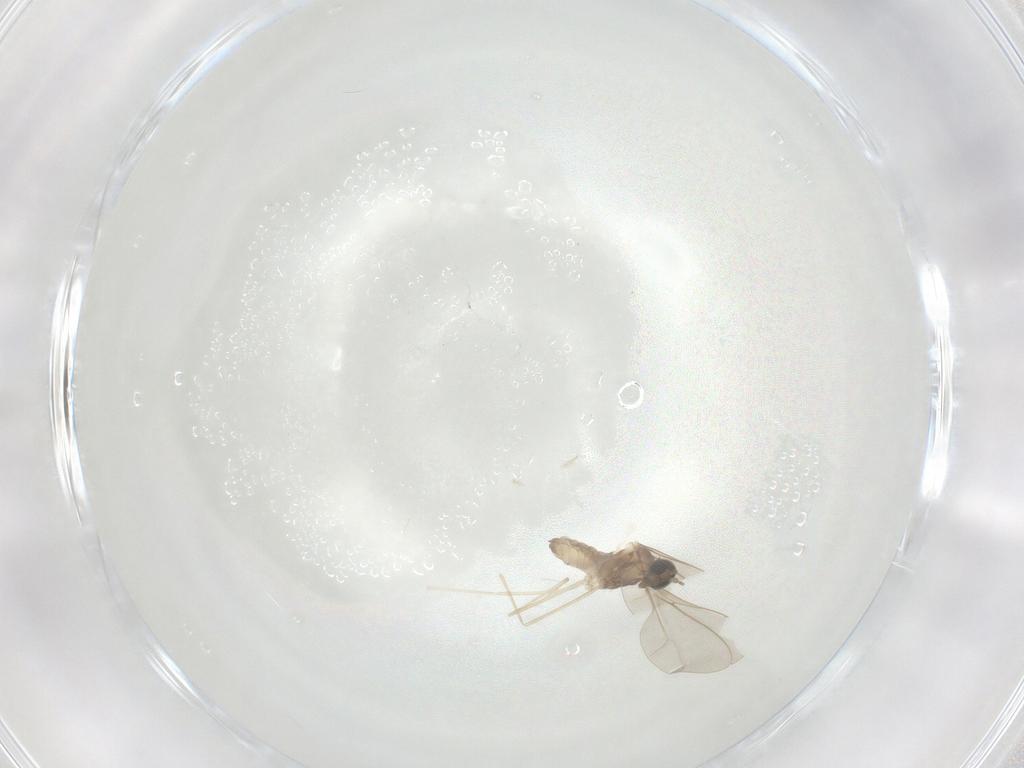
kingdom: Animalia
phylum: Arthropoda
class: Insecta
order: Diptera
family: Cecidomyiidae
